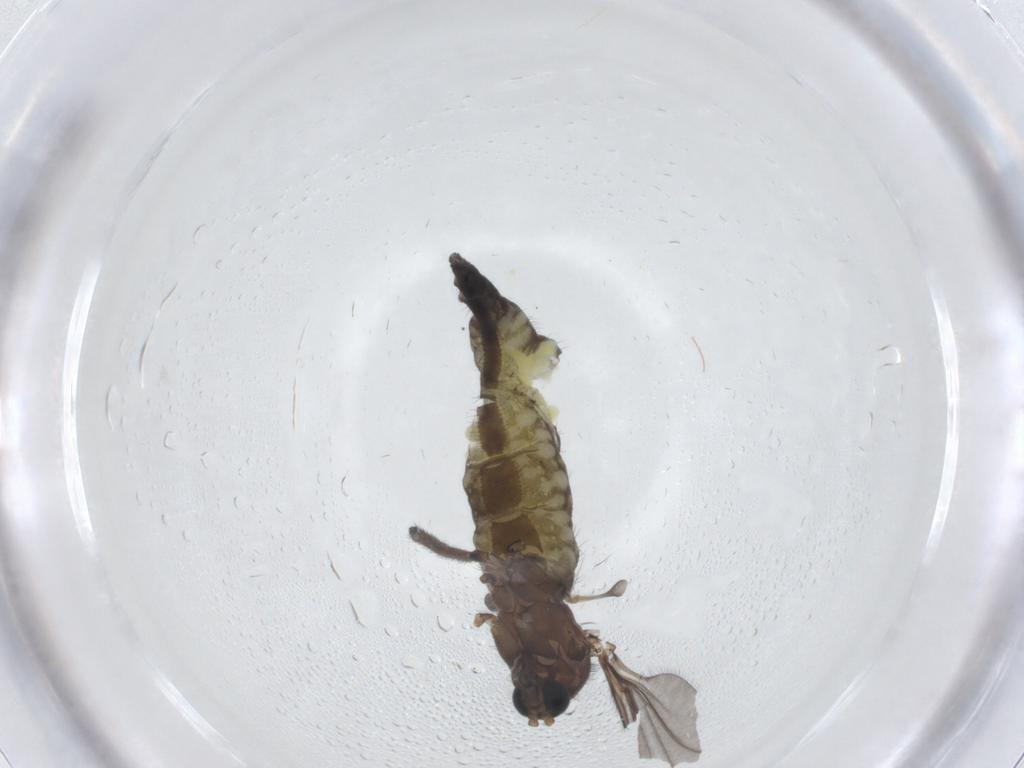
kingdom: Animalia
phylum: Arthropoda
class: Insecta
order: Diptera
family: Sciaridae
